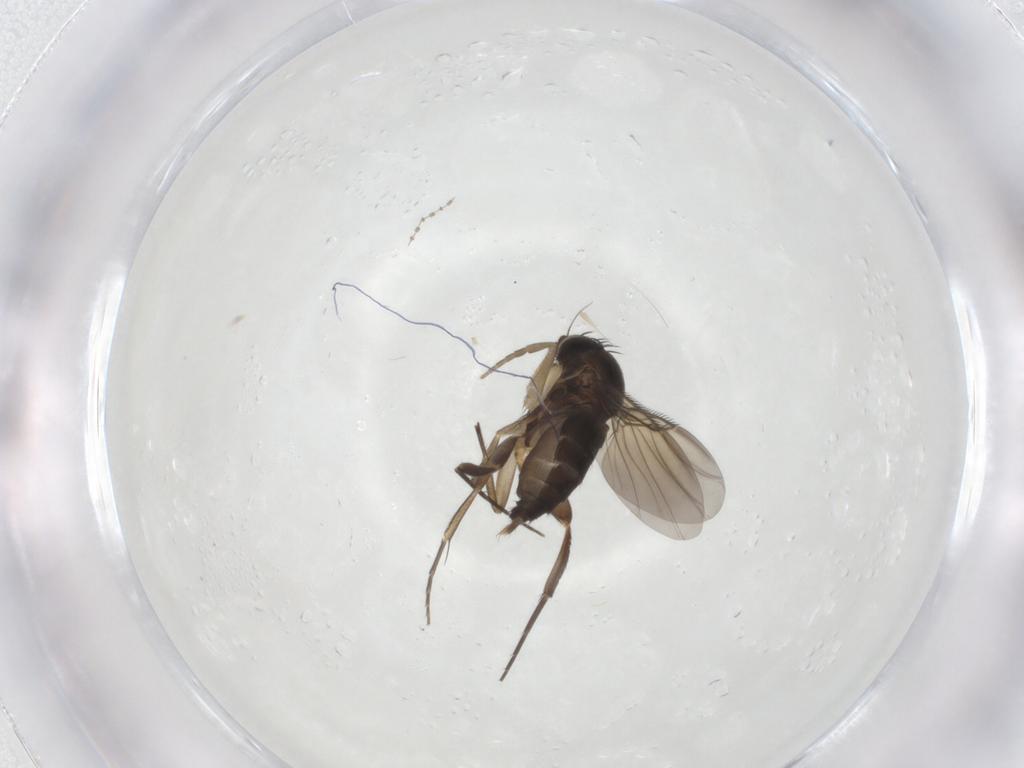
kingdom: Animalia
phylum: Arthropoda
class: Insecta
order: Diptera
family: Phoridae
